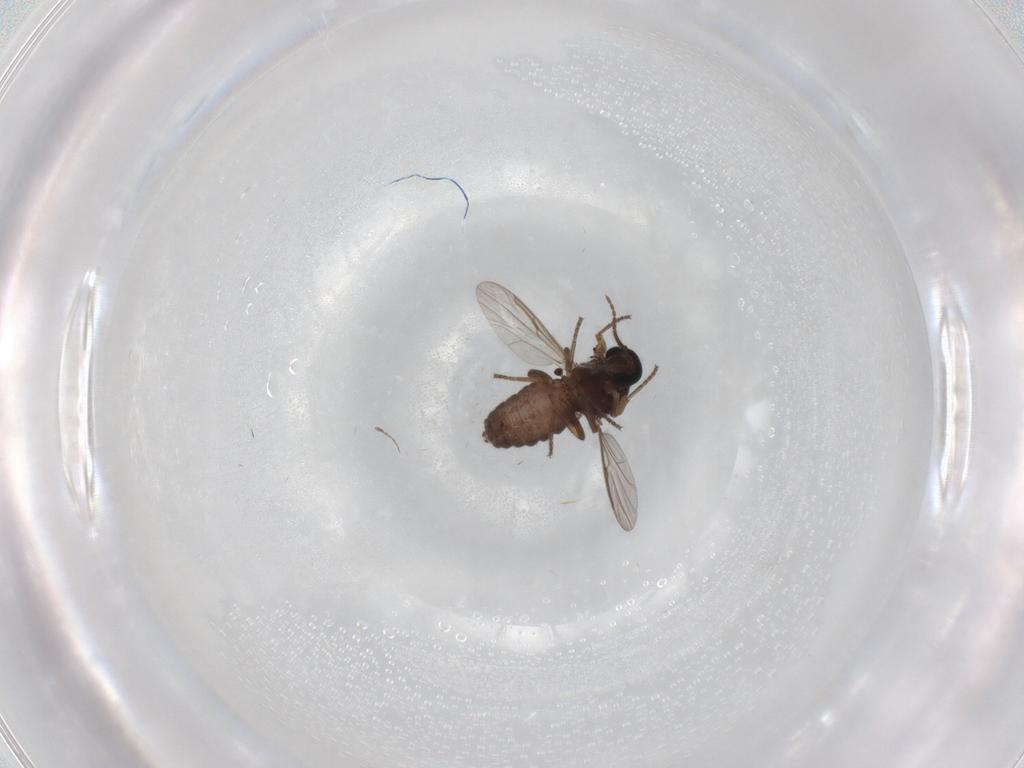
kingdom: Animalia
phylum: Arthropoda
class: Insecta
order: Diptera
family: Ceratopogonidae
